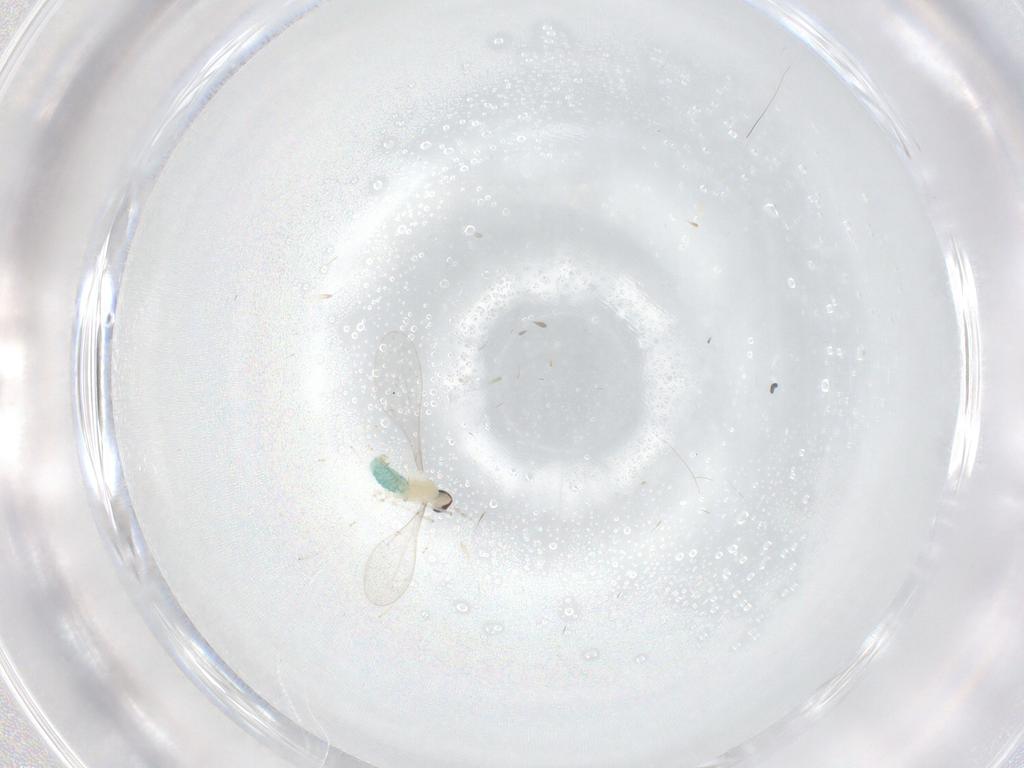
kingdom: Animalia
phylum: Arthropoda
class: Insecta
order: Diptera
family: Cecidomyiidae
